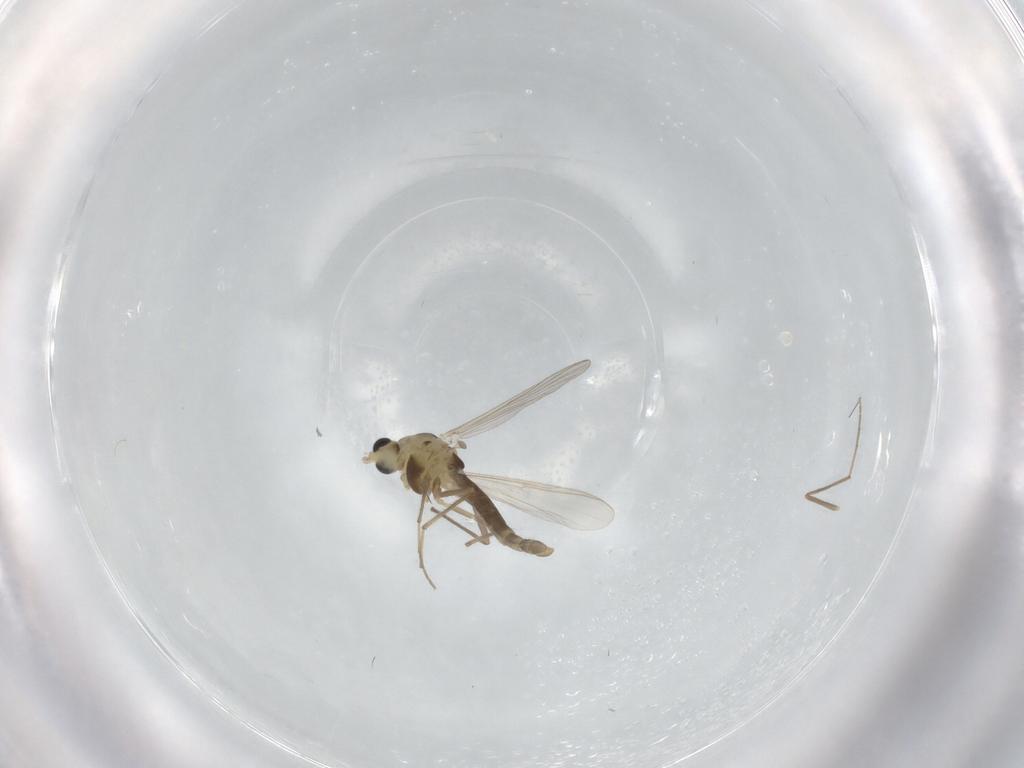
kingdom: Animalia
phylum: Arthropoda
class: Insecta
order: Diptera
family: Chironomidae
